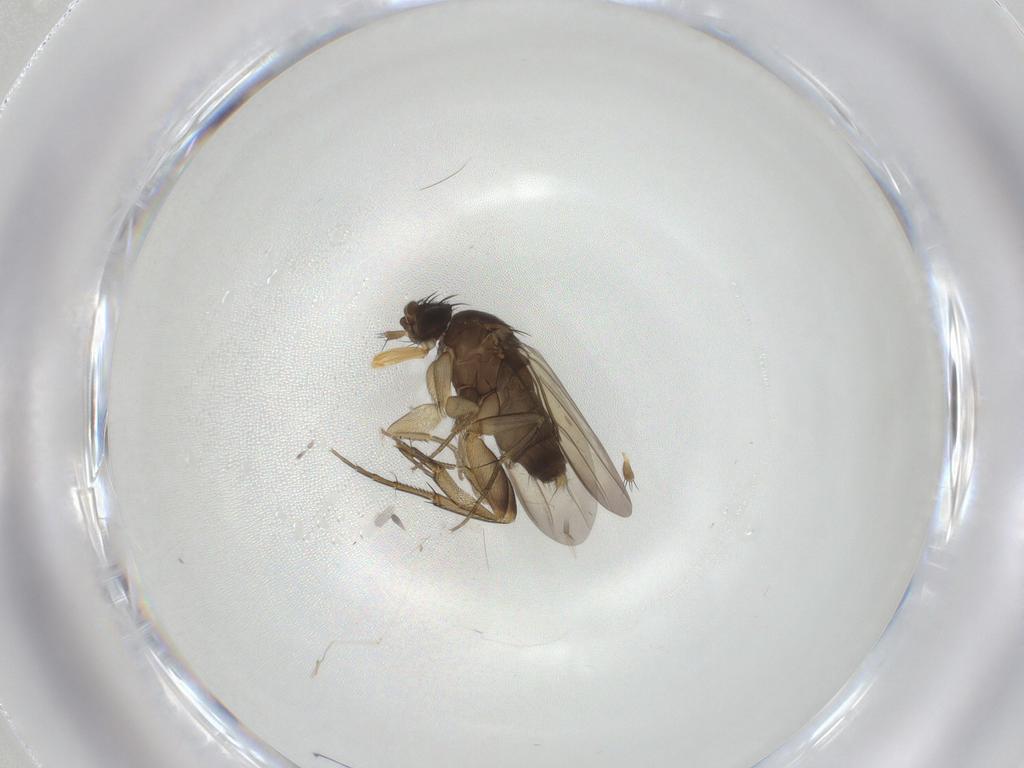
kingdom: Animalia
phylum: Arthropoda
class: Insecta
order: Diptera
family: Phoridae
